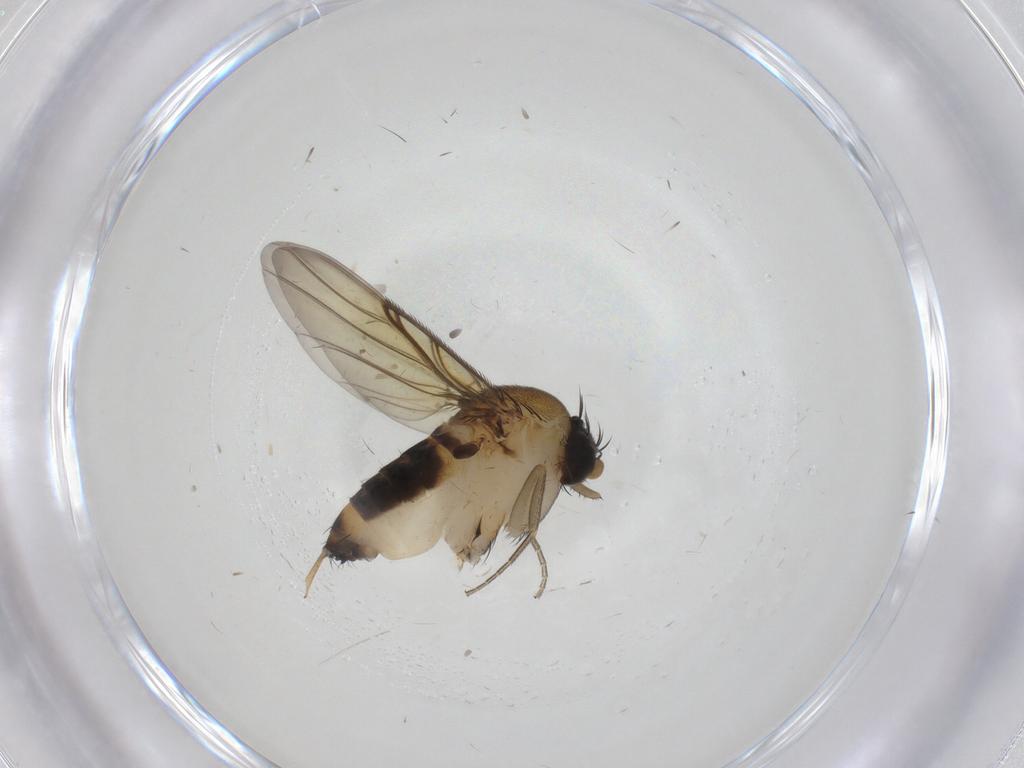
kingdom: Animalia
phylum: Arthropoda
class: Insecta
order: Diptera
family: Phoridae
